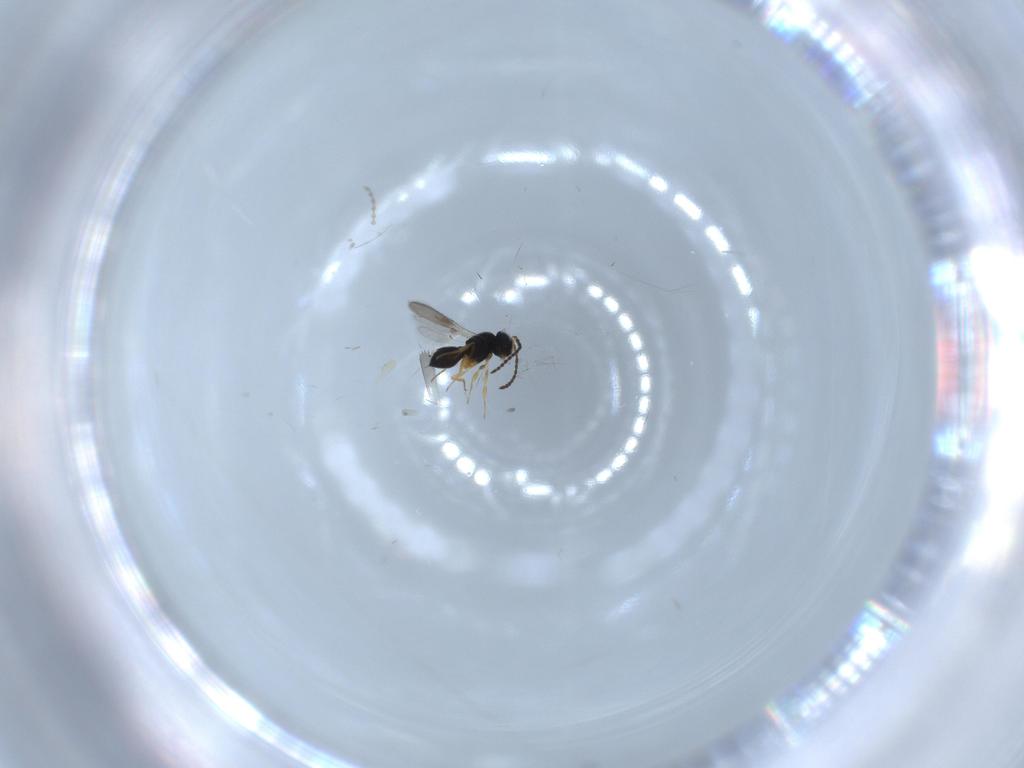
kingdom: Animalia
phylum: Arthropoda
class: Insecta
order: Hymenoptera
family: Scelionidae
